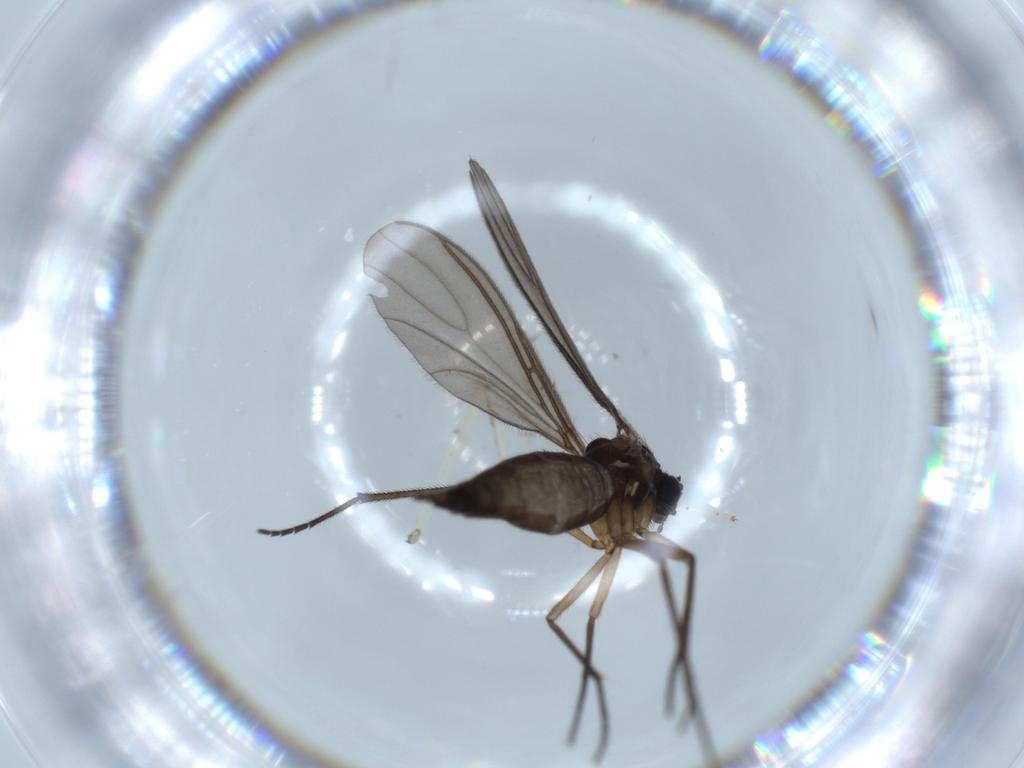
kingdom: Animalia
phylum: Arthropoda
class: Insecta
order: Diptera
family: Sciaridae
